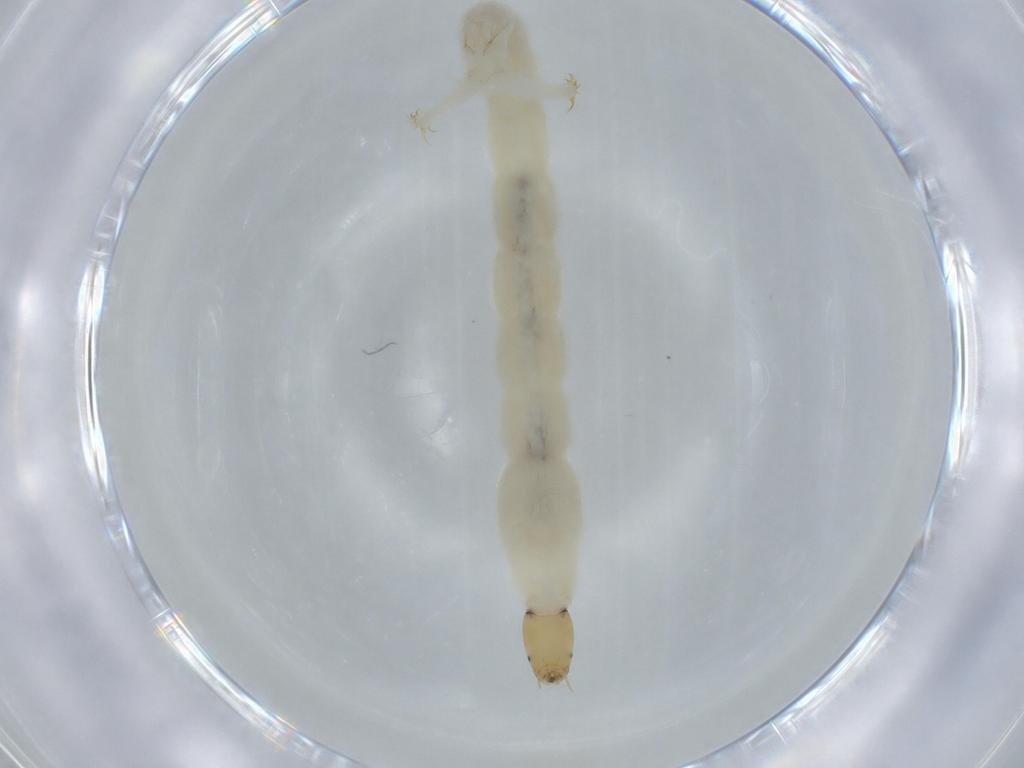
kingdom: Animalia
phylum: Arthropoda
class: Insecta
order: Diptera
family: Chironomidae
